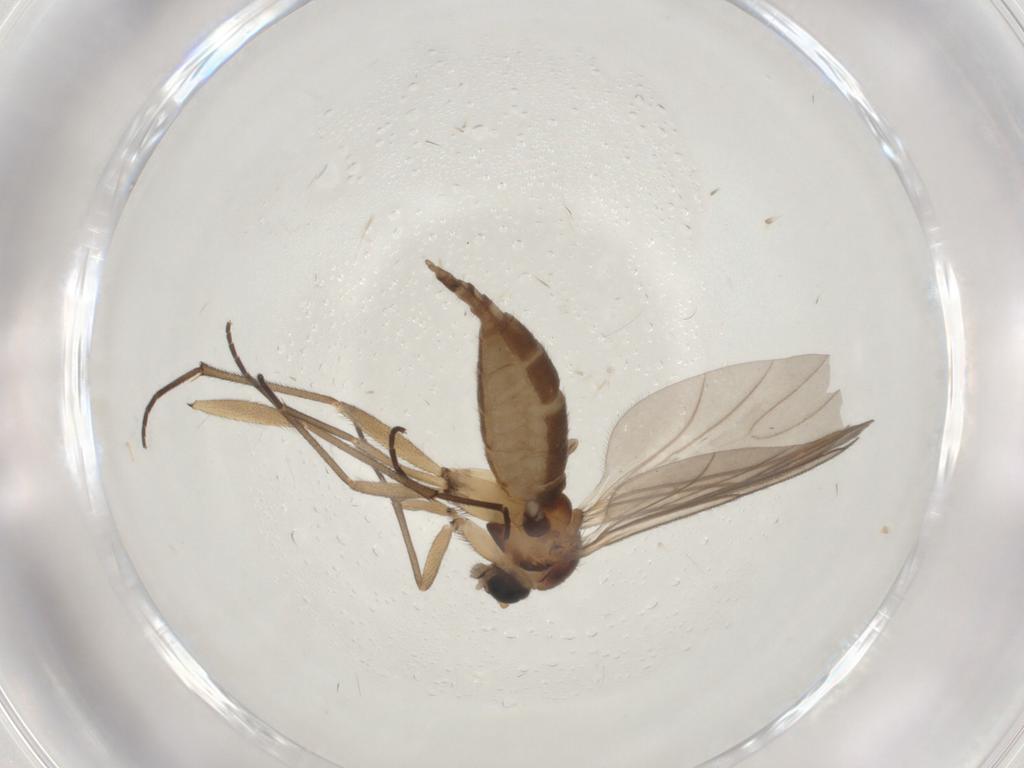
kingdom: Animalia
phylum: Arthropoda
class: Insecta
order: Diptera
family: Sciaridae
